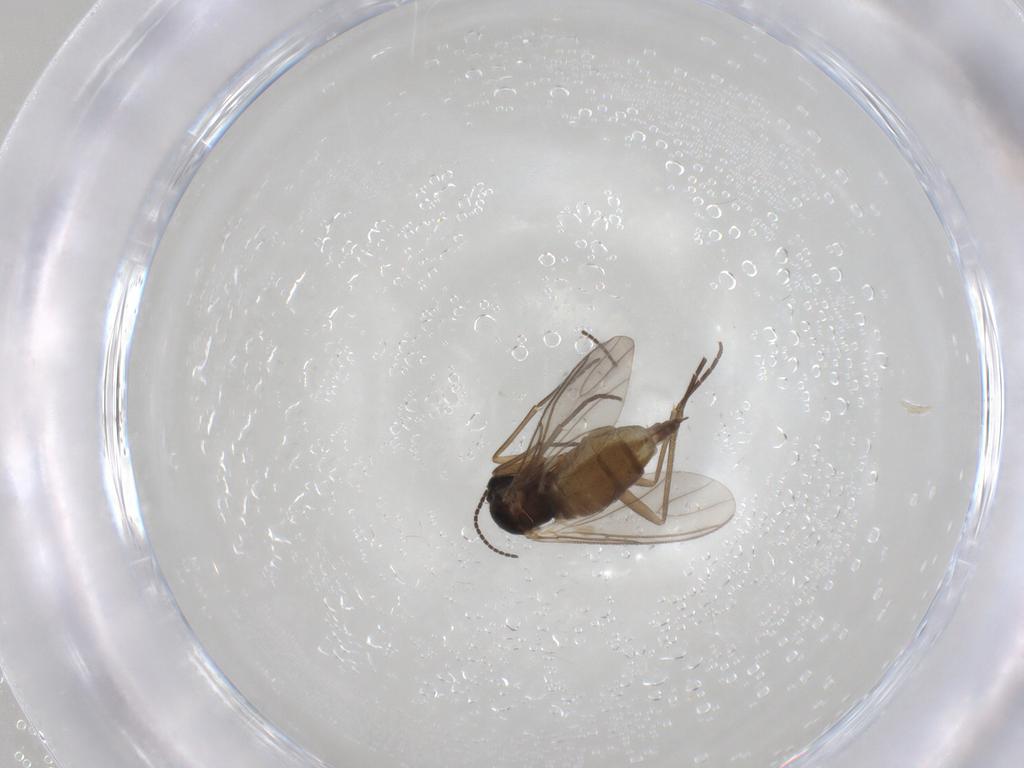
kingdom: Animalia
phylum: Arthropoda
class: Insecta
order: Diptera
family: Sciaridae
